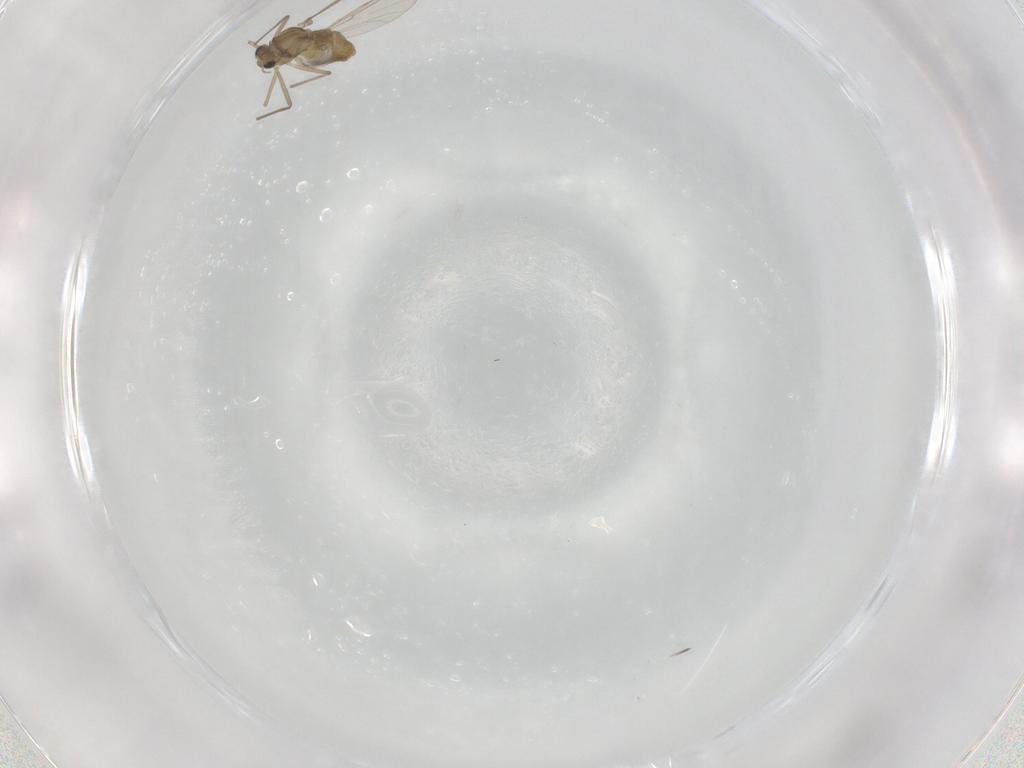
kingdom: Animalia
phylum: Arthropoda
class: Insecta
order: Diptera
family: Chironomidae
